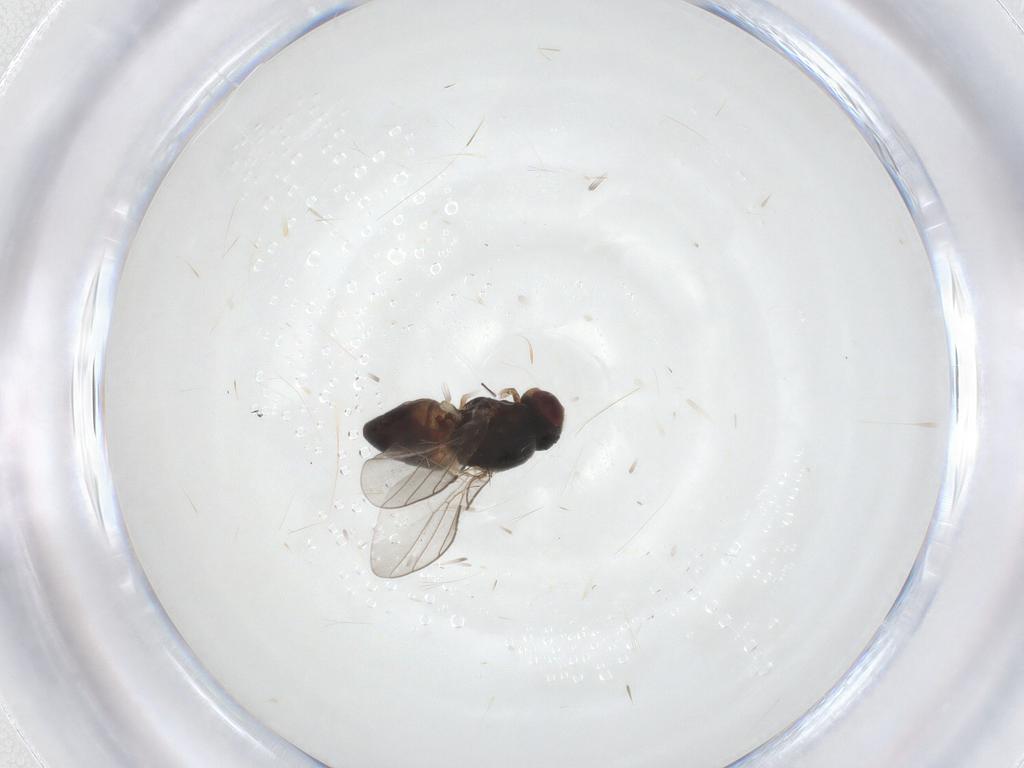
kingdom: Animalia
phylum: Arthropoda
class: Insecta
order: Diptera
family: Chloropidae
